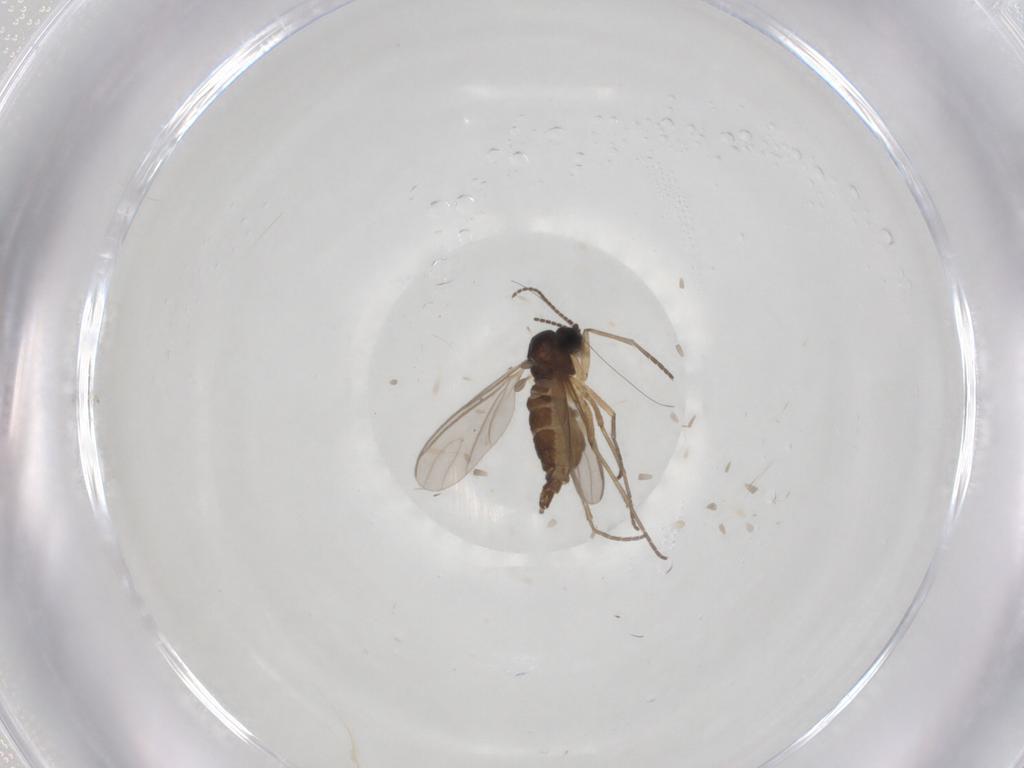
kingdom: Animalia
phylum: Arthropoda
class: Insecta
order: Diptera
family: Sciaridae
